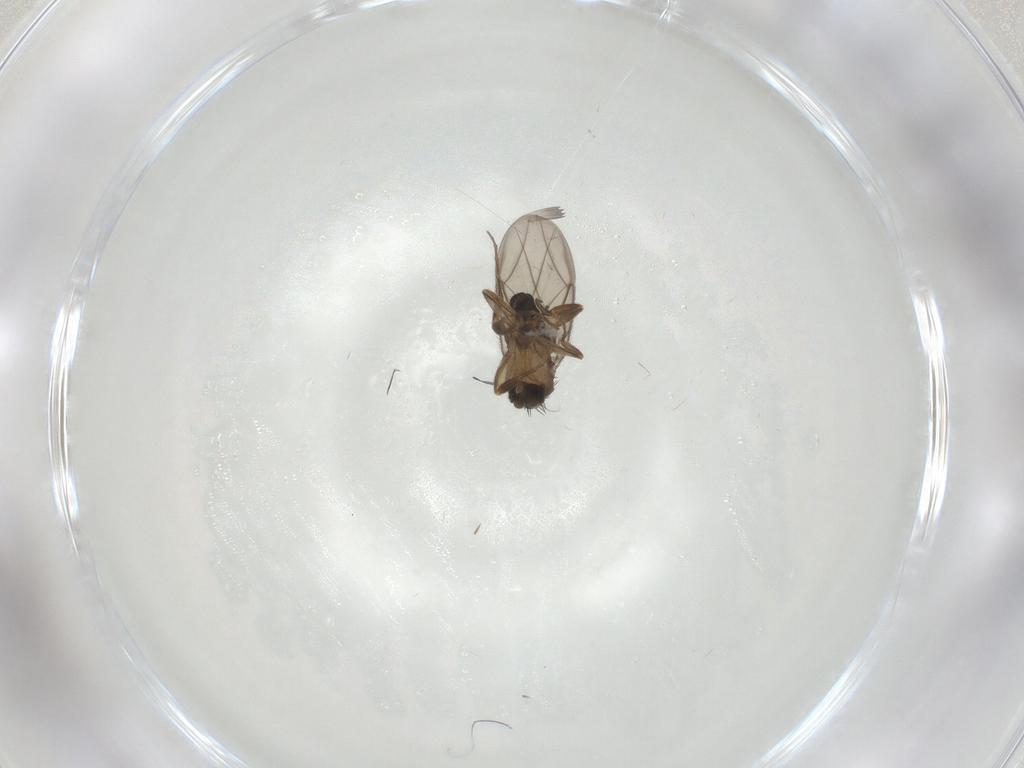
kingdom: Animalia
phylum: Arthropoda
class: Insecta
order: Diptera
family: Phoridae
